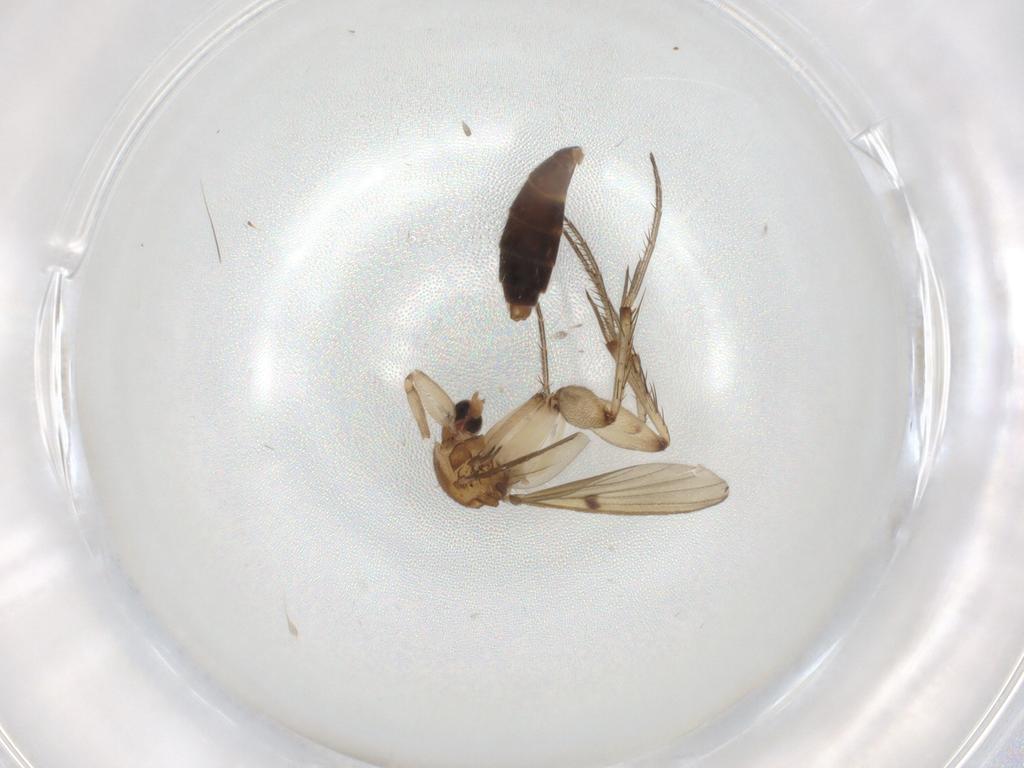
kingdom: Animalia
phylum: Arthropoda
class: Insecta
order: Diptera
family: Mycetophilidae
